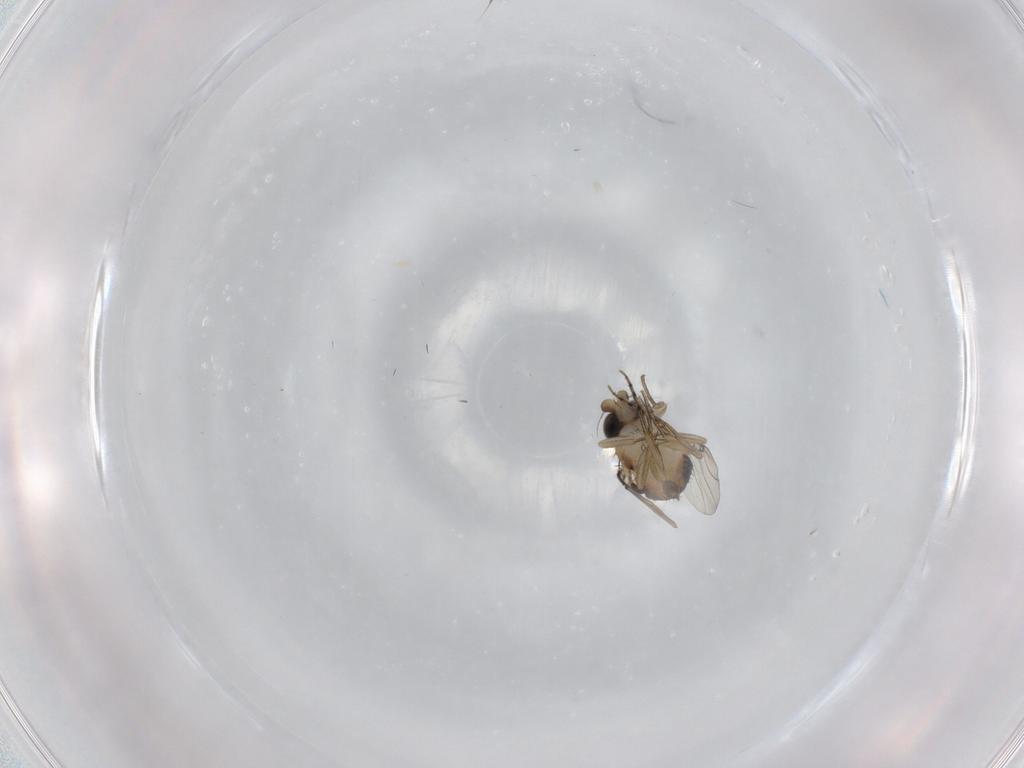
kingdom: Animalia
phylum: Arthropoda
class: Insecta
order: Diptera
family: Phoridae
